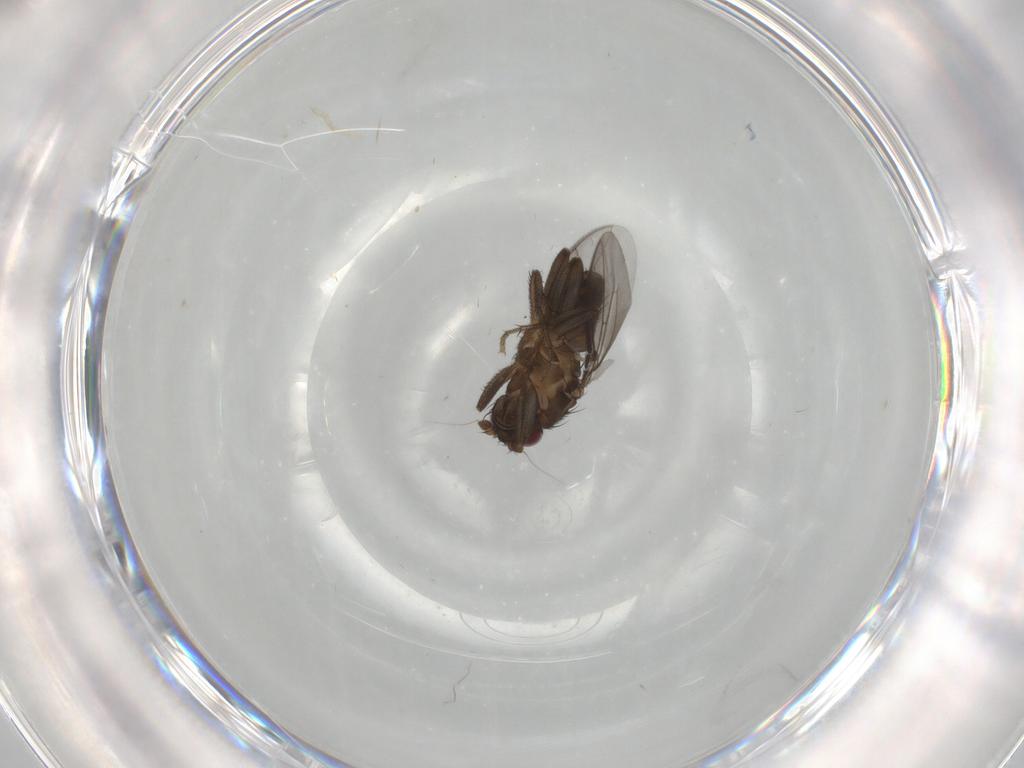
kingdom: Animalia
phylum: Arthropoda
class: Insecta
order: Diptera
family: Sphaeroceridae
